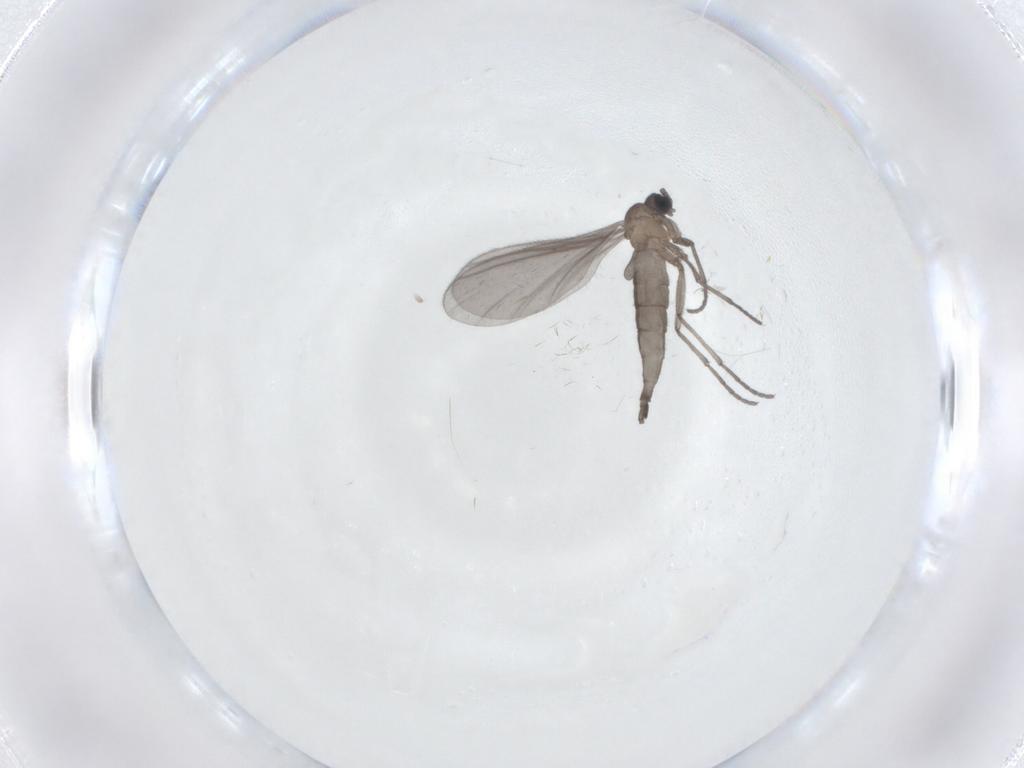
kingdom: Animalia
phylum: Arthropoda
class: Insecta
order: Diptera
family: Sciaridae
